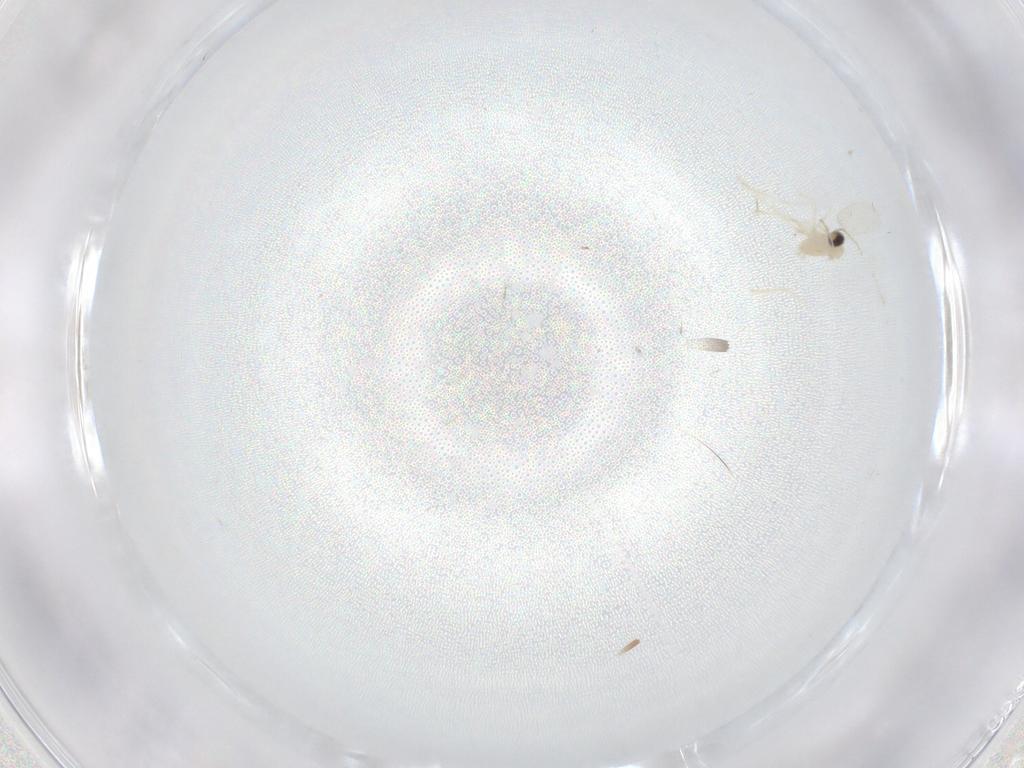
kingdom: Animalia
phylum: Arthropoda
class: Insecta
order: Diptera
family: Cecidomyiidae
